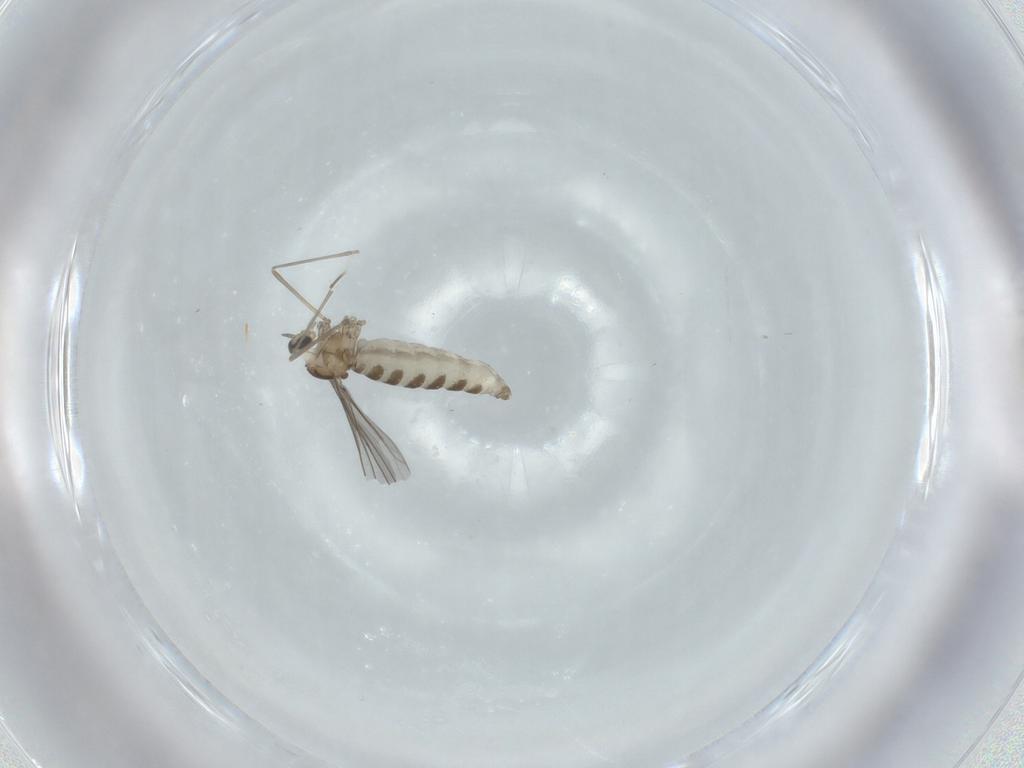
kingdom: Animalia
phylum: Arthropoda
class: Insecta
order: Diptera
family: Cecidomyiidae
